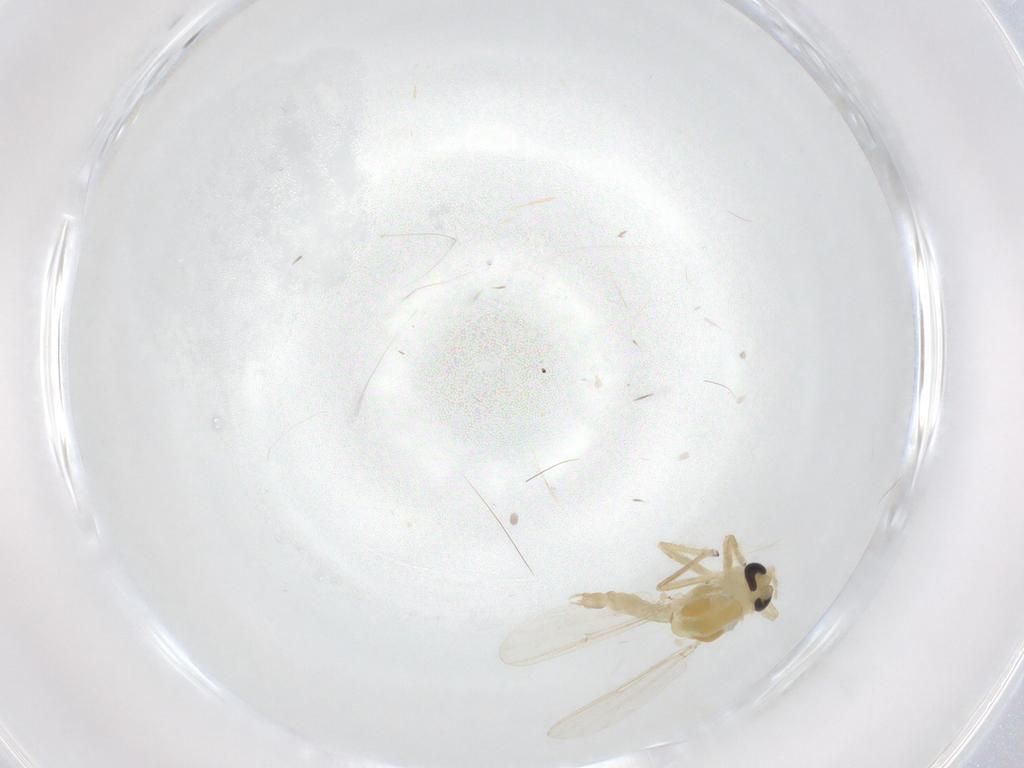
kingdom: Animalia
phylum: Arthropoda
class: Insecta
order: Diptera
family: Chironomidae
